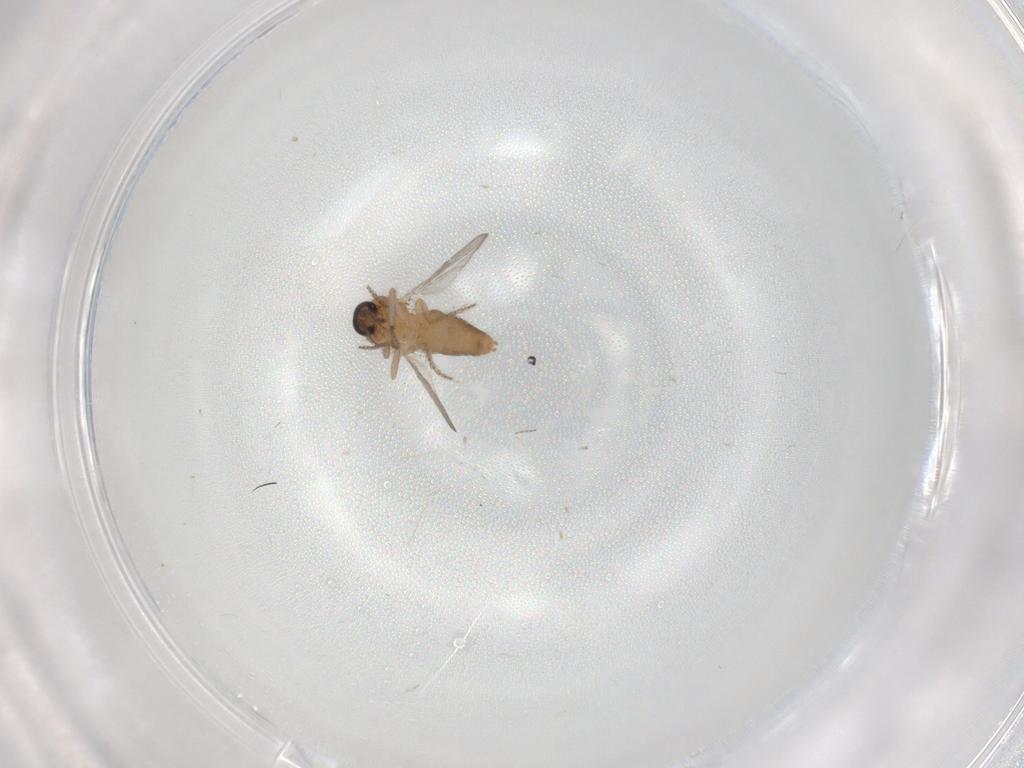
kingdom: Animalia
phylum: Arthropoda
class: Insecta
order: Diptera
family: Ceratopogonidae
